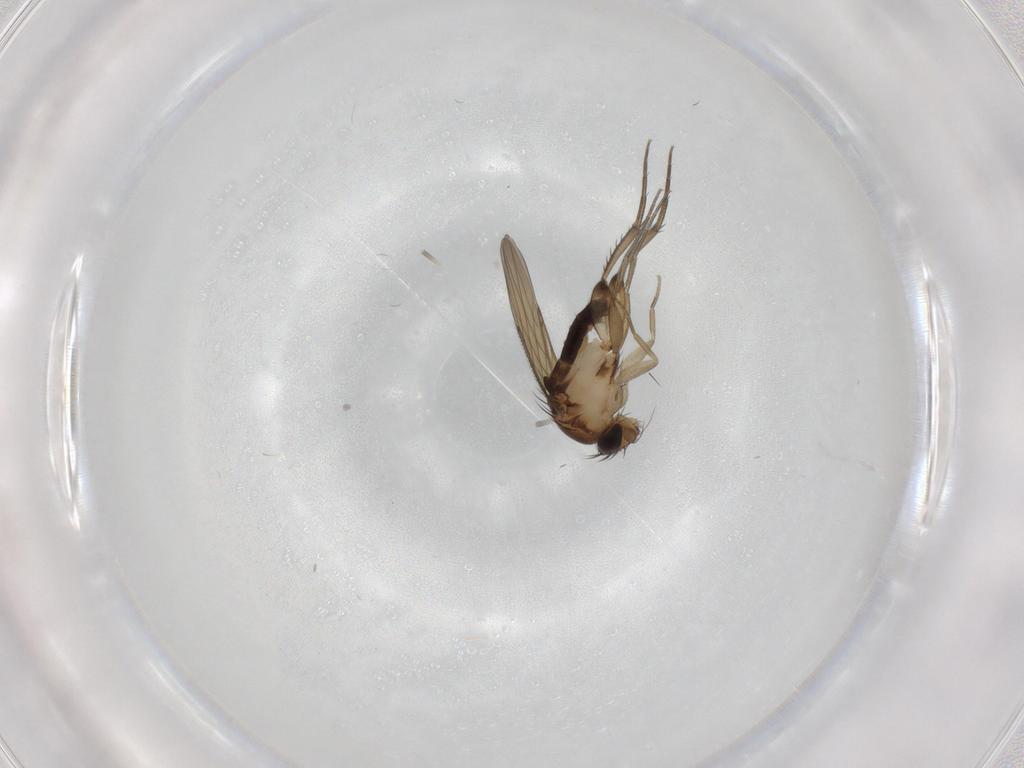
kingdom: Animalia
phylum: Arthropoda
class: Insecta
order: Diptera
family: Phoridae
